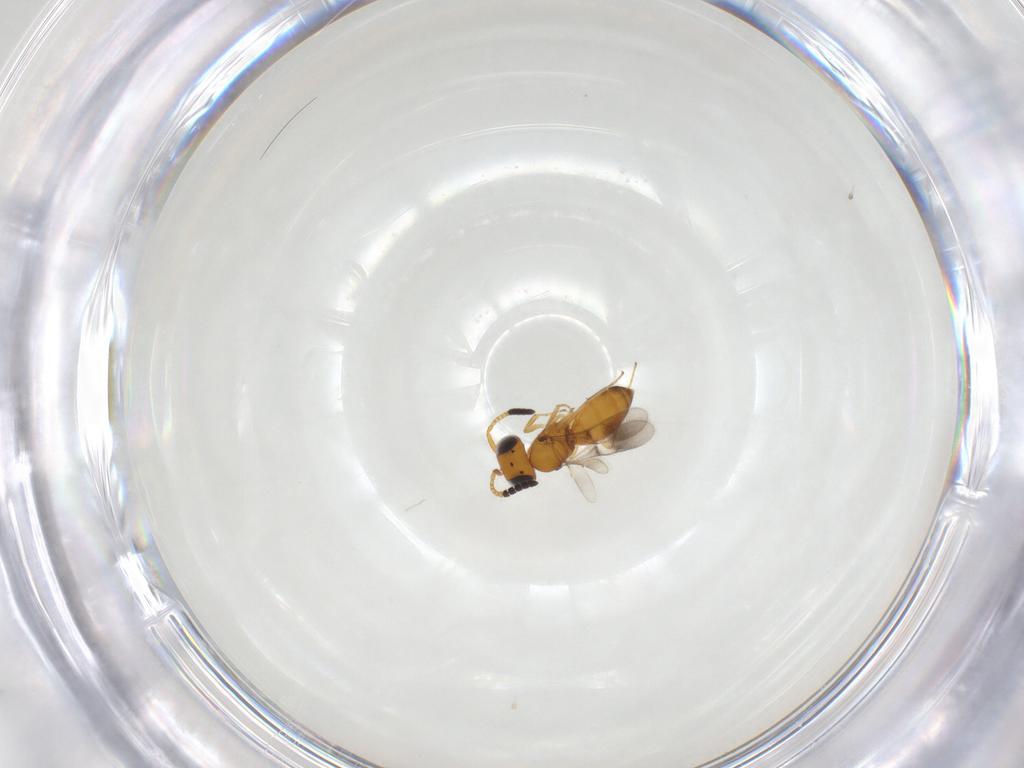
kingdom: Animalia
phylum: Arthropoda
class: Insecta
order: Hymenoptera
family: Scelionidae
